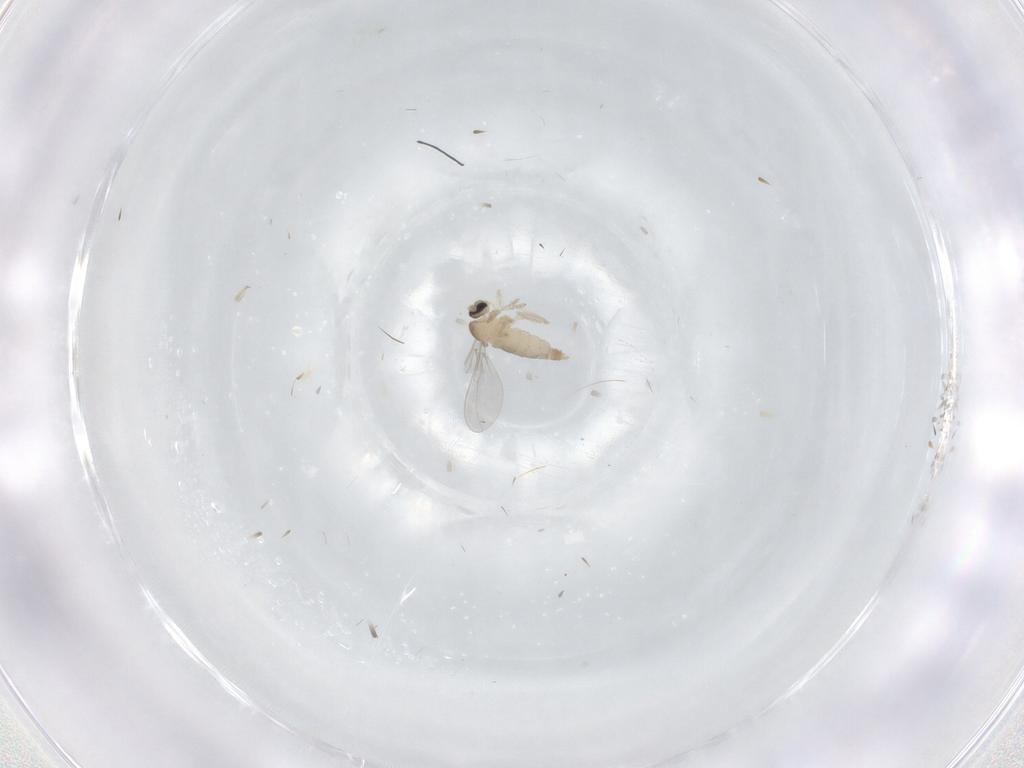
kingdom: Animalia
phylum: Arthropoda
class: Insecta
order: Diptera
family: Cecidomyiidae
